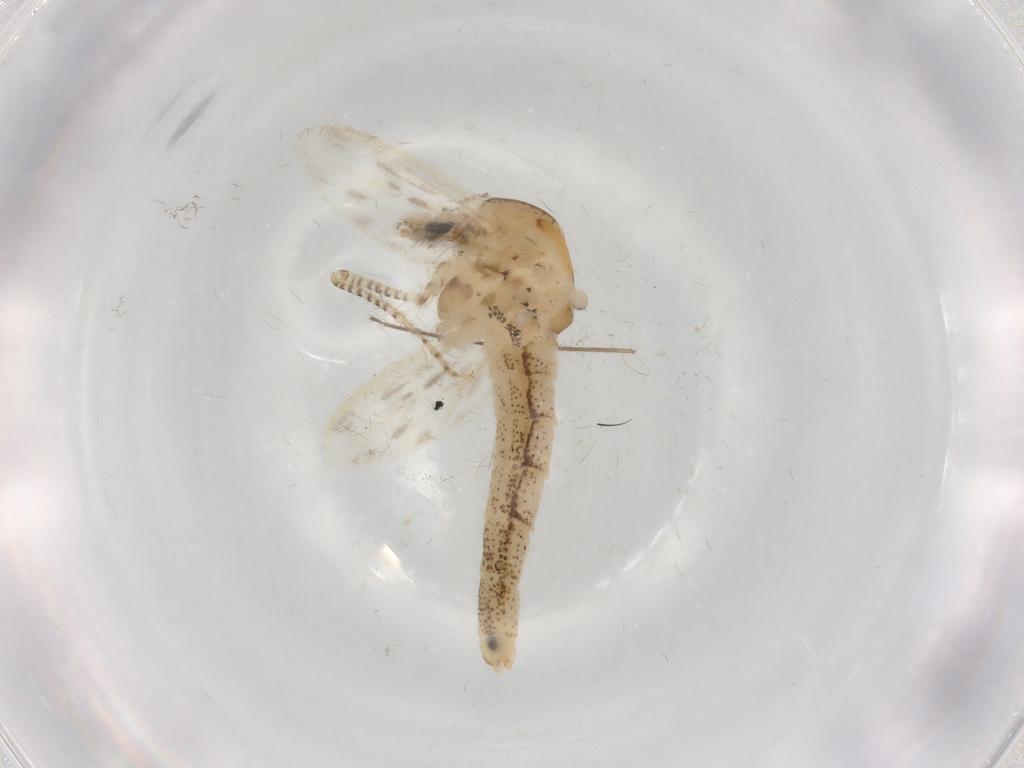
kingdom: Animalia
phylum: Arthropoda
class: Insecta
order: Diptera
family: Chaoboridae
